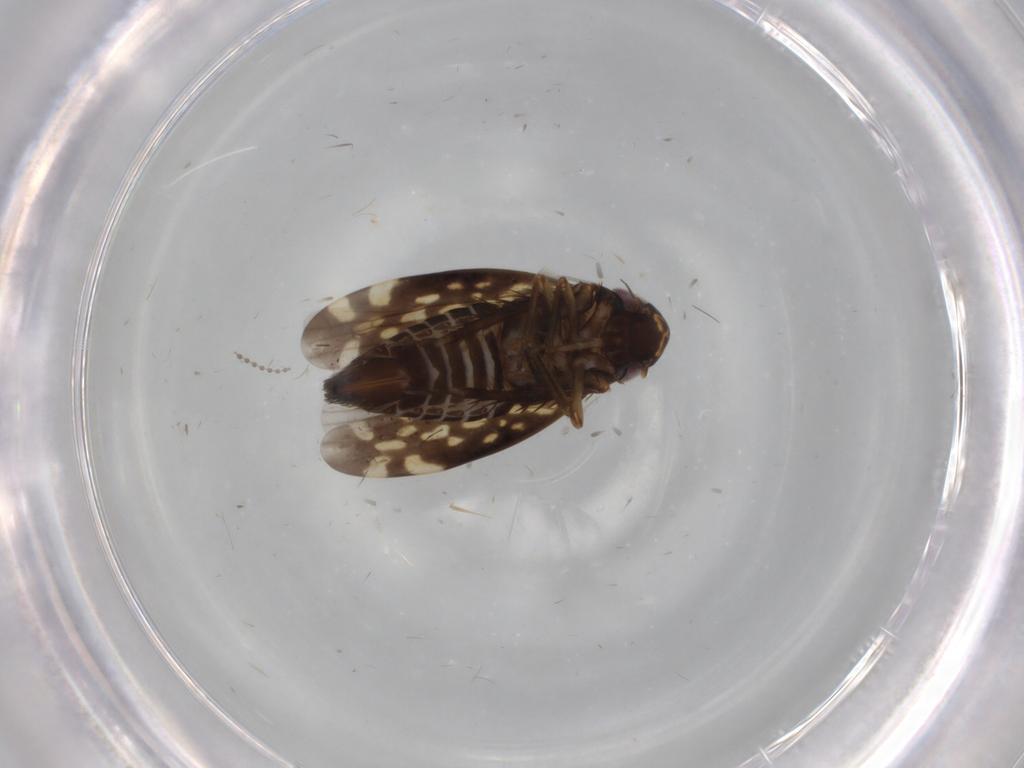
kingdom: Animalia
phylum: Arthropoda
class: Insecta
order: Hemiptera
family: Cicadellidae
